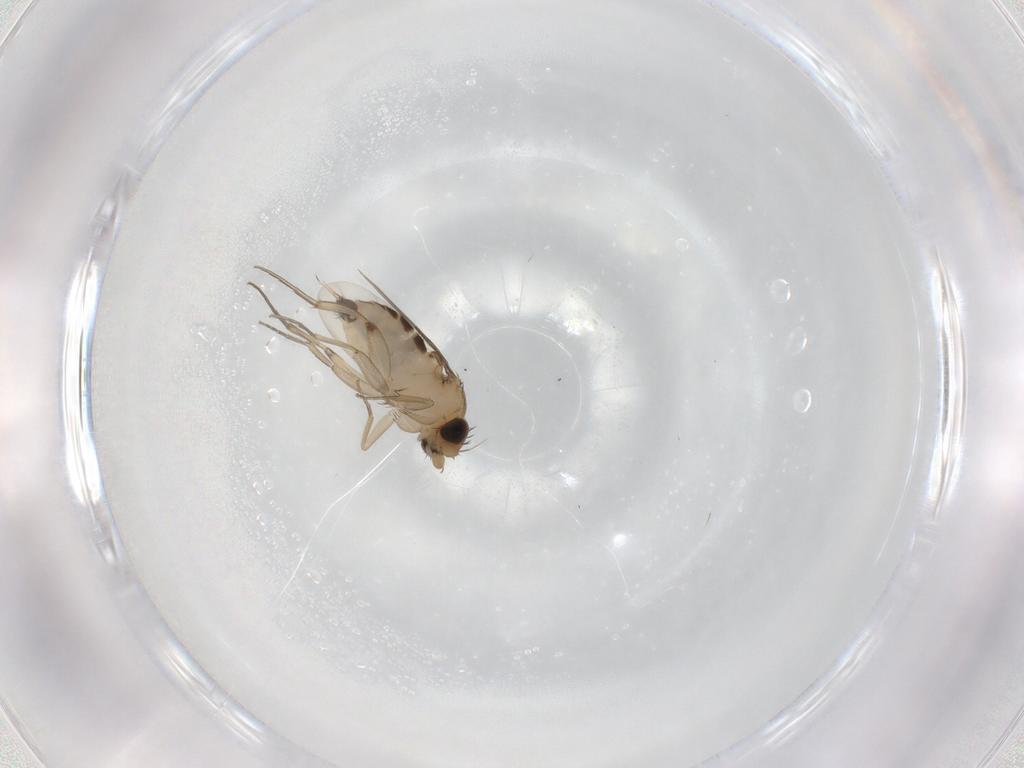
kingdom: Animalia
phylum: Arthropoda
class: Insecta
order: Diptera
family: Phoridae
